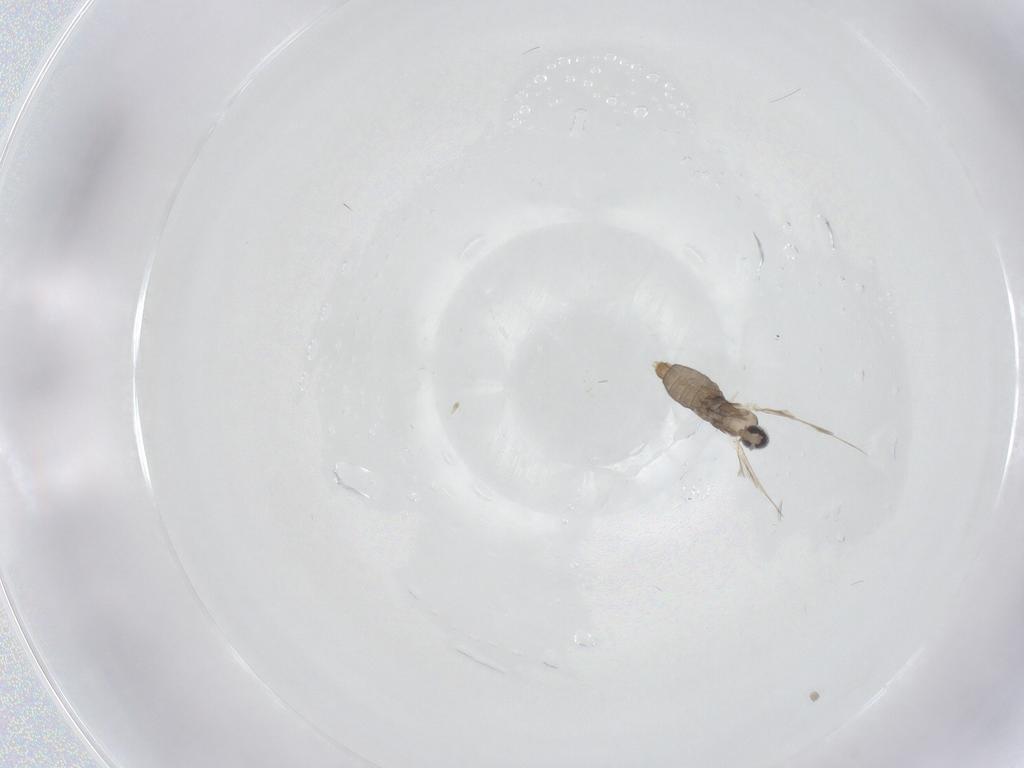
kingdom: Animalia
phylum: Arthropoda
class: Insecta
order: Diptera
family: Cecidomyiidae
